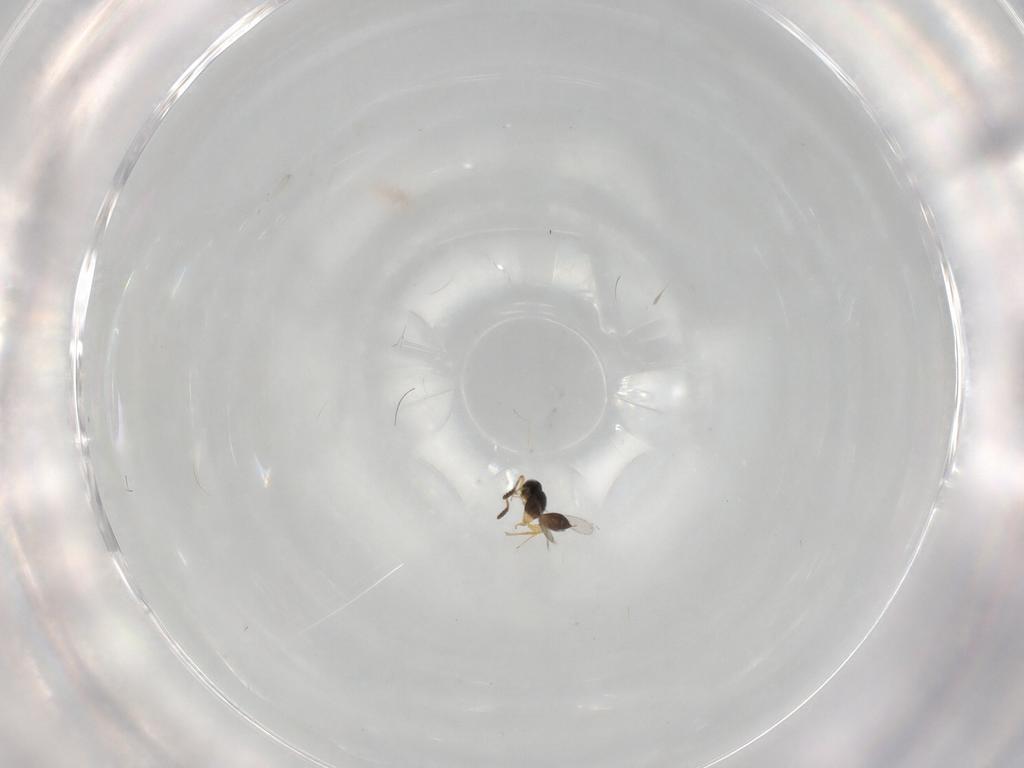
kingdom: Animalia
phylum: Arthropoda
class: Insecta
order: Hymenoptera
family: Scelionidae
